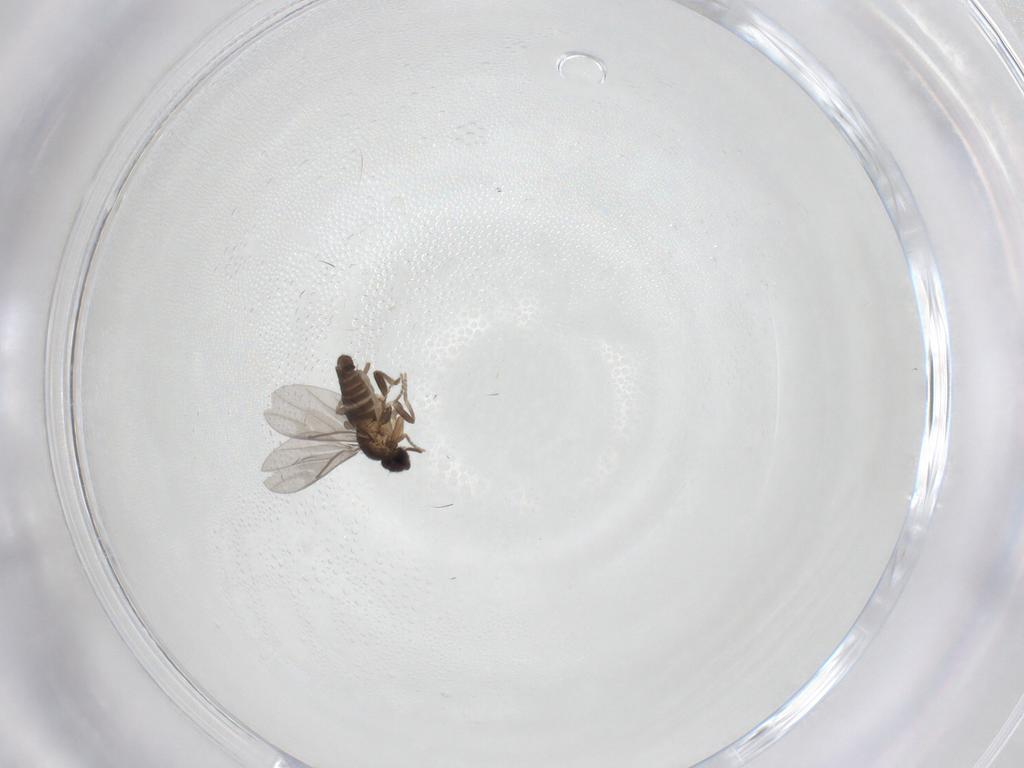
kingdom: Animalia
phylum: Arthropoda
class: Insecta
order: Diptera
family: Phoridae
